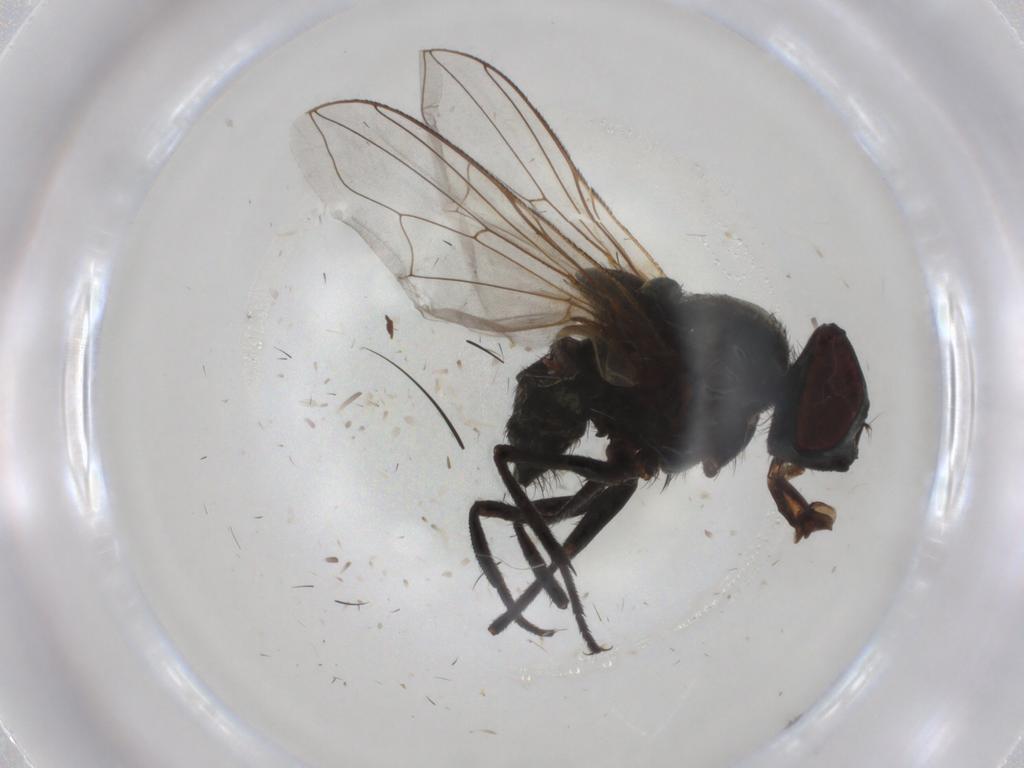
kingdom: Animalia
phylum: Arthropoda
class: Insecta
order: Diptera
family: Muscidae
